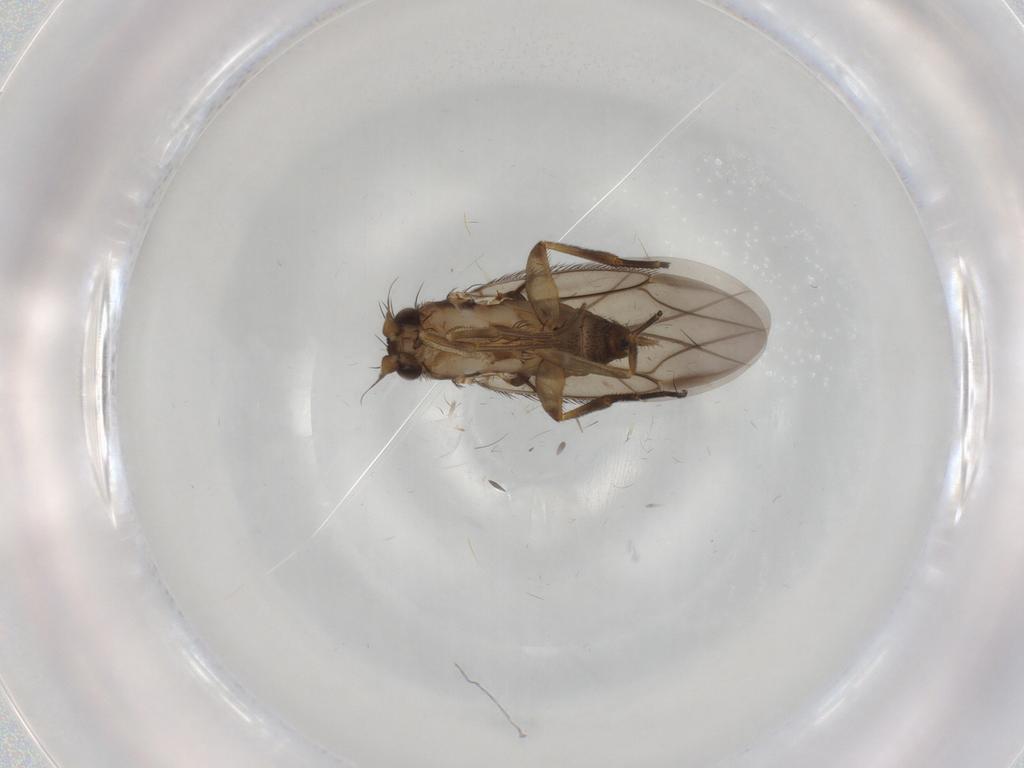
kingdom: Animalia
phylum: Arthropoda
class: Insecta
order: Diptera
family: Phoridae
